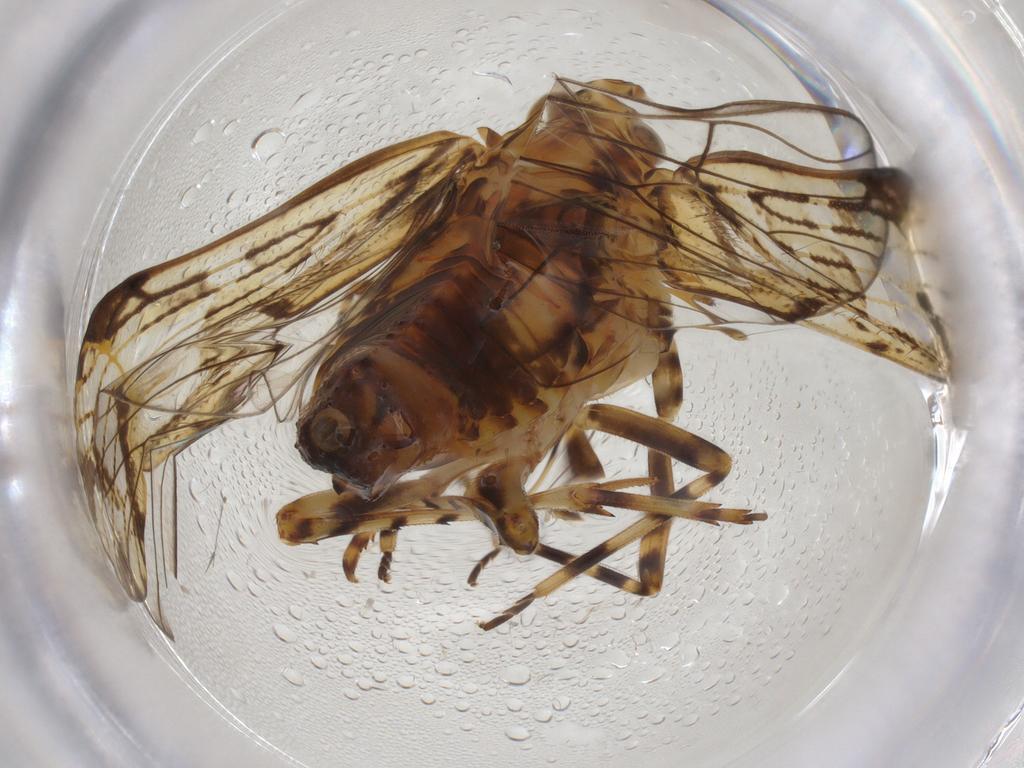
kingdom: Animalia
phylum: Arthropoda
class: Insecta
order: Hemiptera
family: Delphacidae
